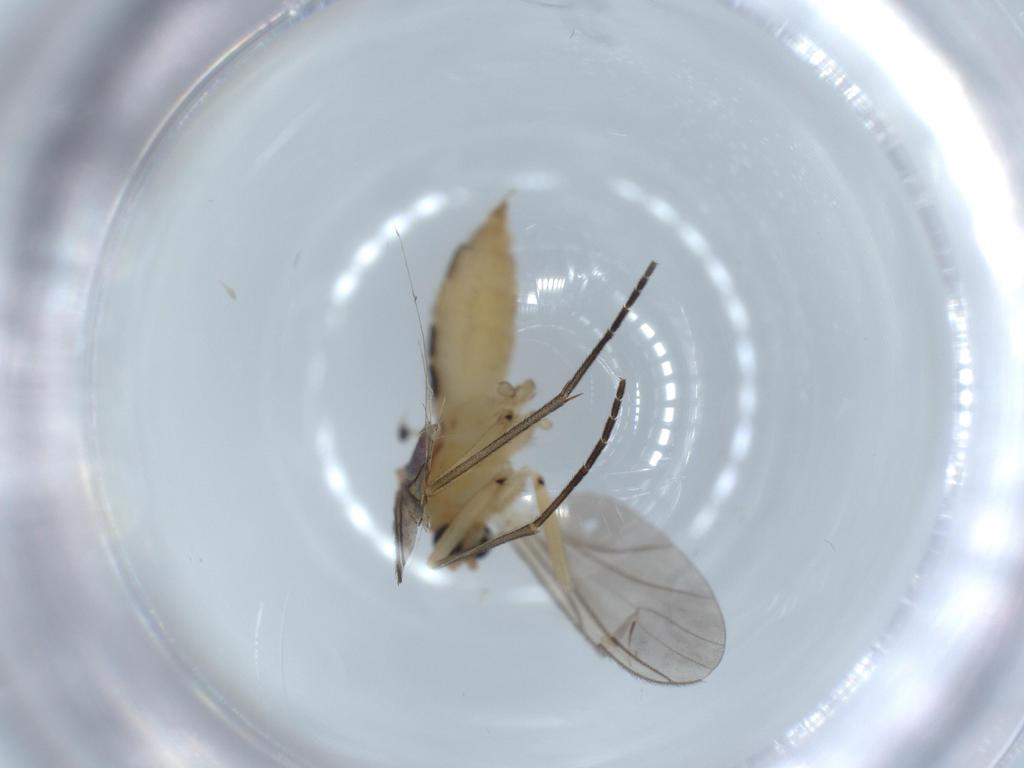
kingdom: Animalia
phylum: Arthropoda
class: Insecta
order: Diptera
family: Sciaridae
